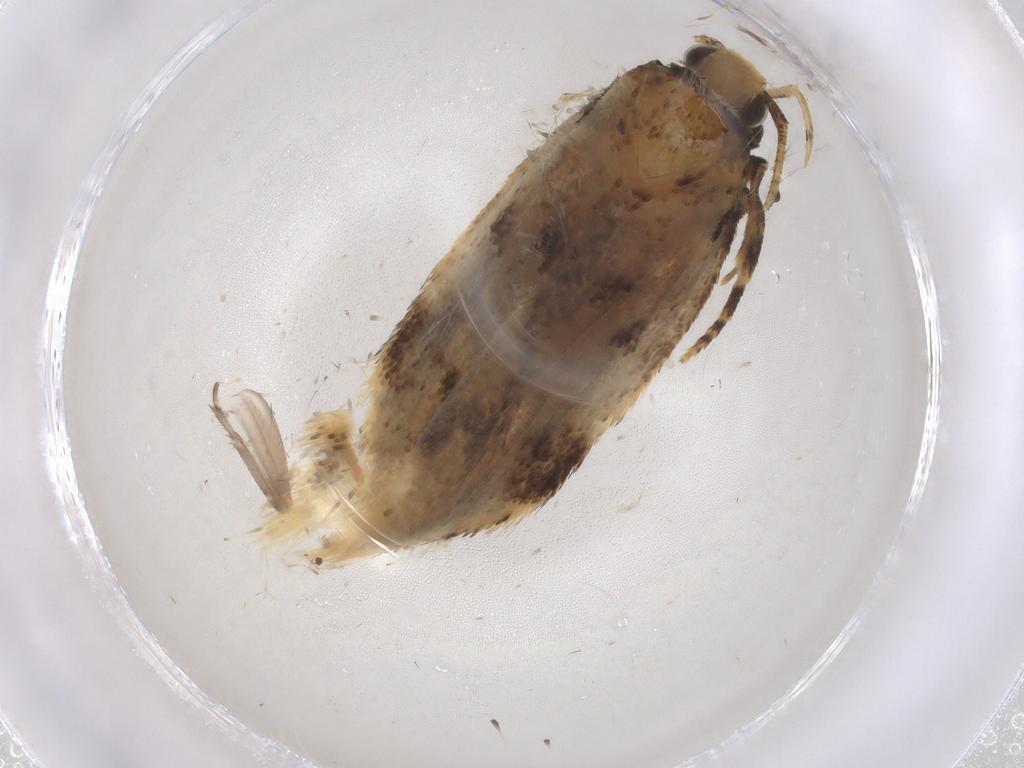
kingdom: Animalia
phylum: Arthropoda
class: Insecta
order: Lepidoptera
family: Gelechiidae
